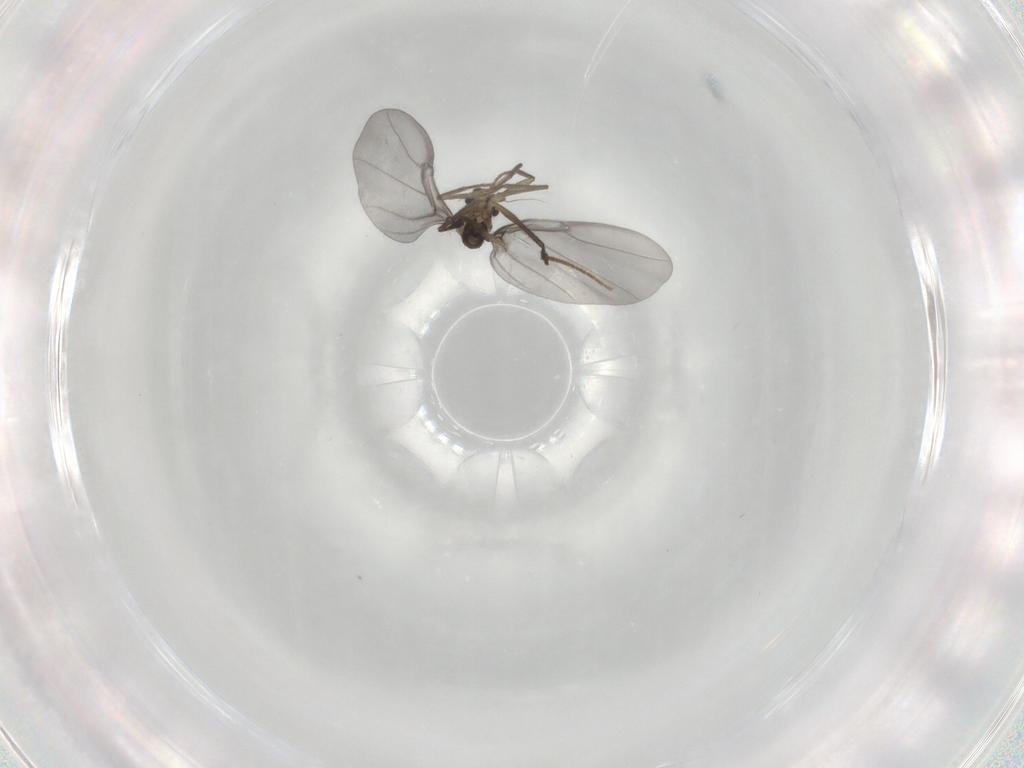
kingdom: Animalia
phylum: Arthropoda
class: Insecta
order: Diptera
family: Phoridae
